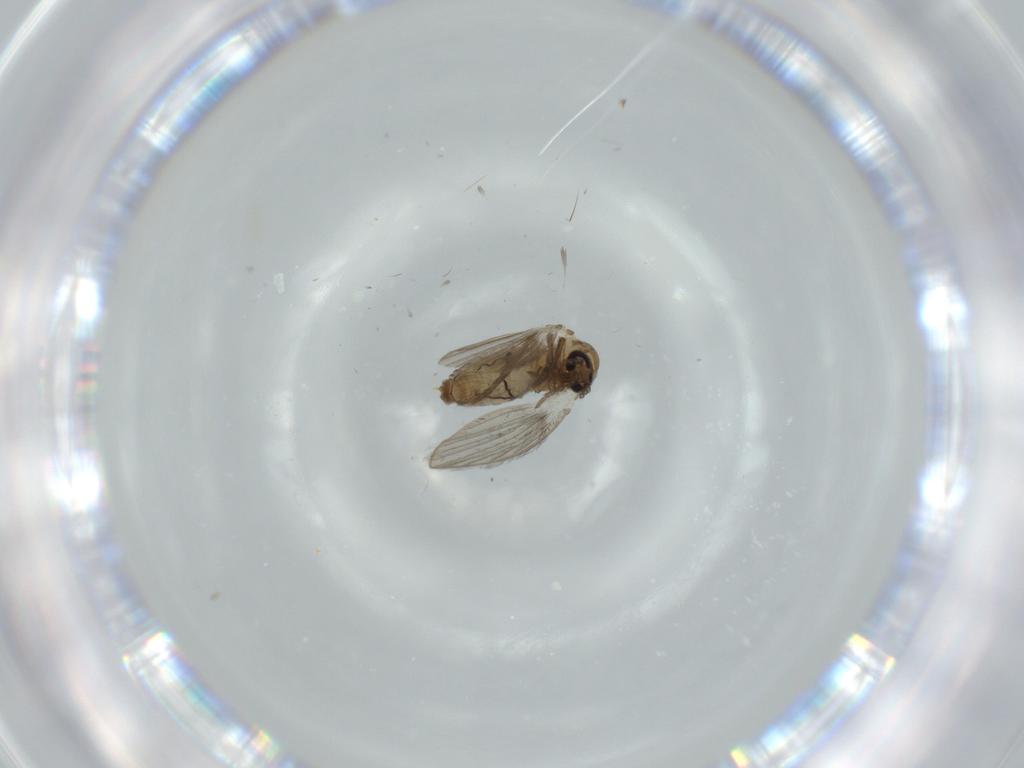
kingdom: Animalia
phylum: Arthropoda
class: Insecta
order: Diptera
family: Psychodidae
